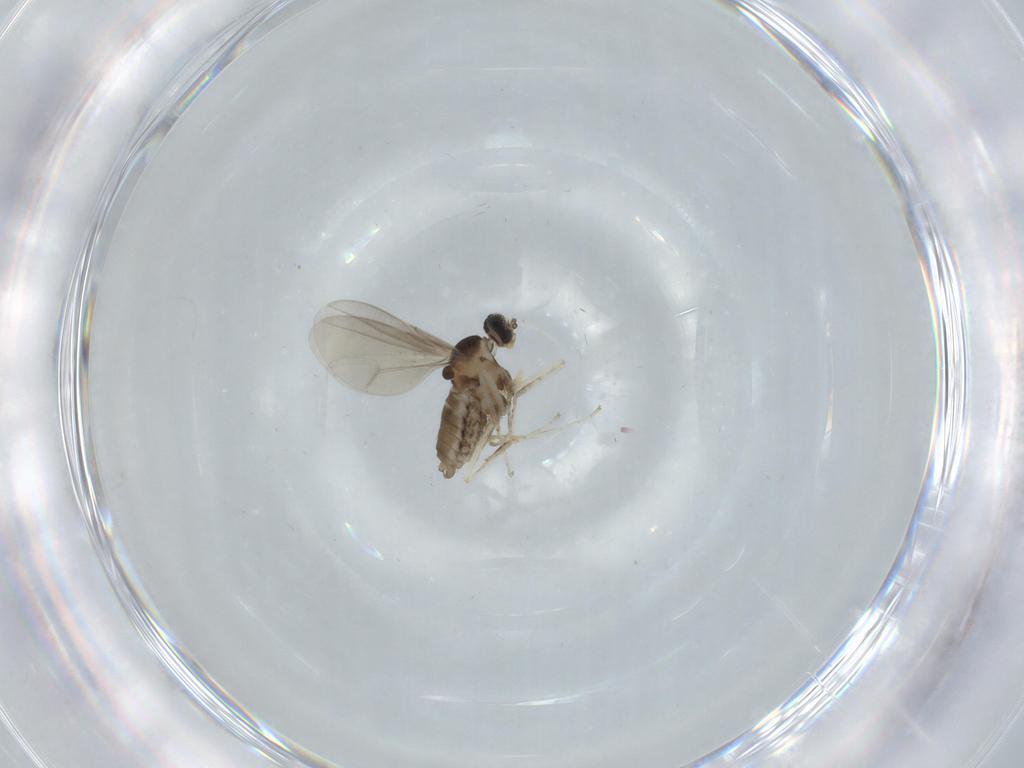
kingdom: Animalia
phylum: Arthropoda
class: Insecta
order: Diptera
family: Cecidomyiidae
